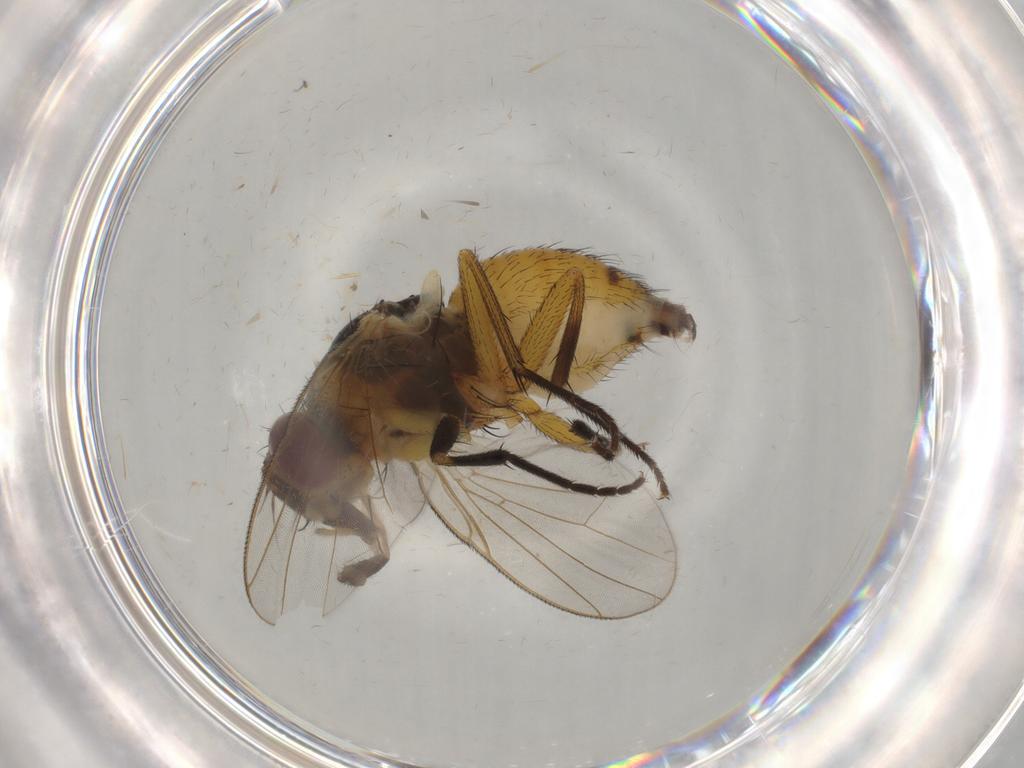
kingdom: Animalia
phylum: Arthropoda
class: Insecta
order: Diptera
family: Muscidae
